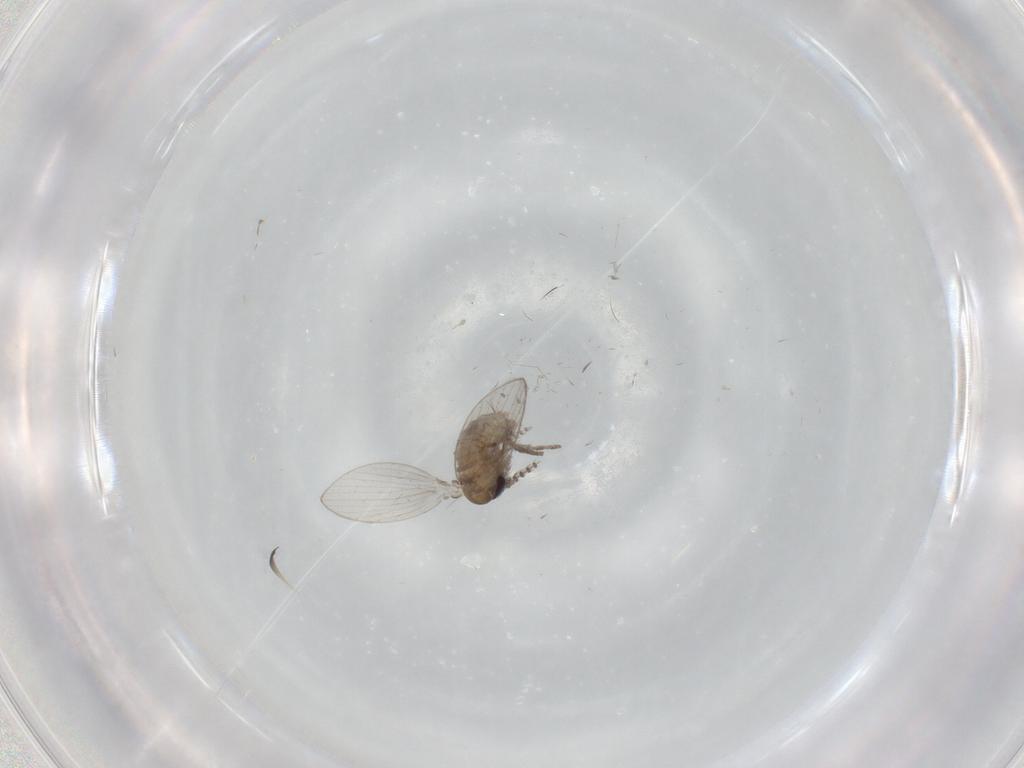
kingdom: Animalia
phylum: Arthropoda
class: Insecta
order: Diptera
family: Psychodidae
